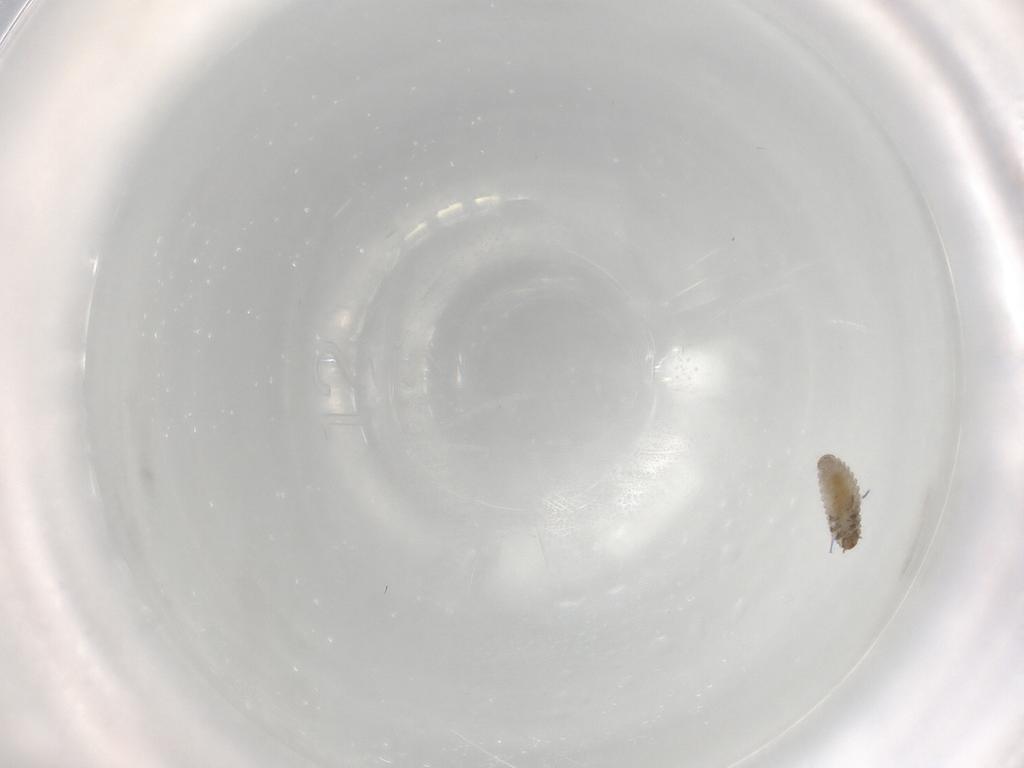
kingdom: Animalia
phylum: Arthropoda
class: Insecta
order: Coleoptera
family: Corylophidae
